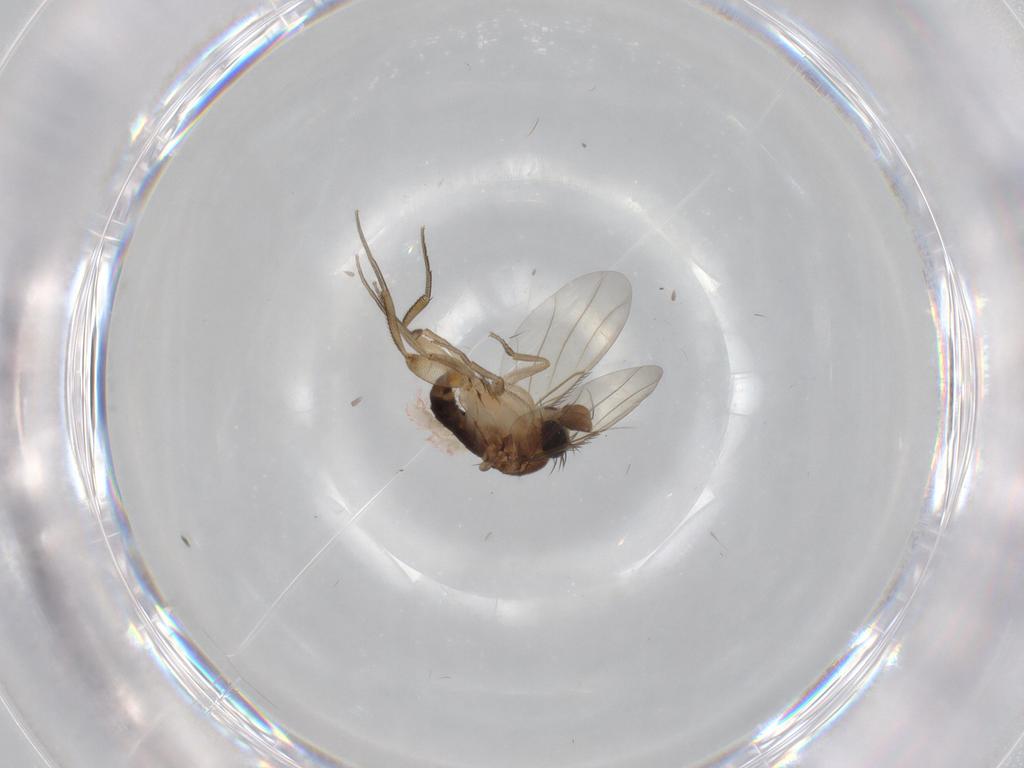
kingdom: Animalia
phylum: Arthropoda
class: Insecta
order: Diptera
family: Phoridae
